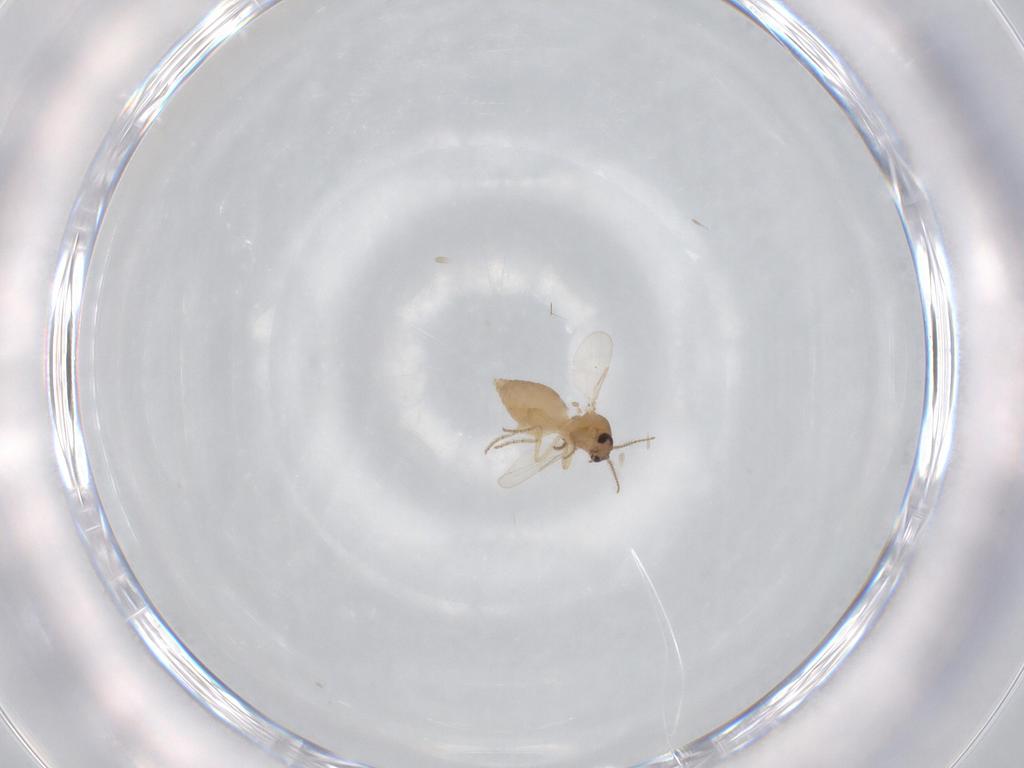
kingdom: Animalia
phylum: Arthropoda
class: Insecta
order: Diptera
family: Ceratopogonidae
